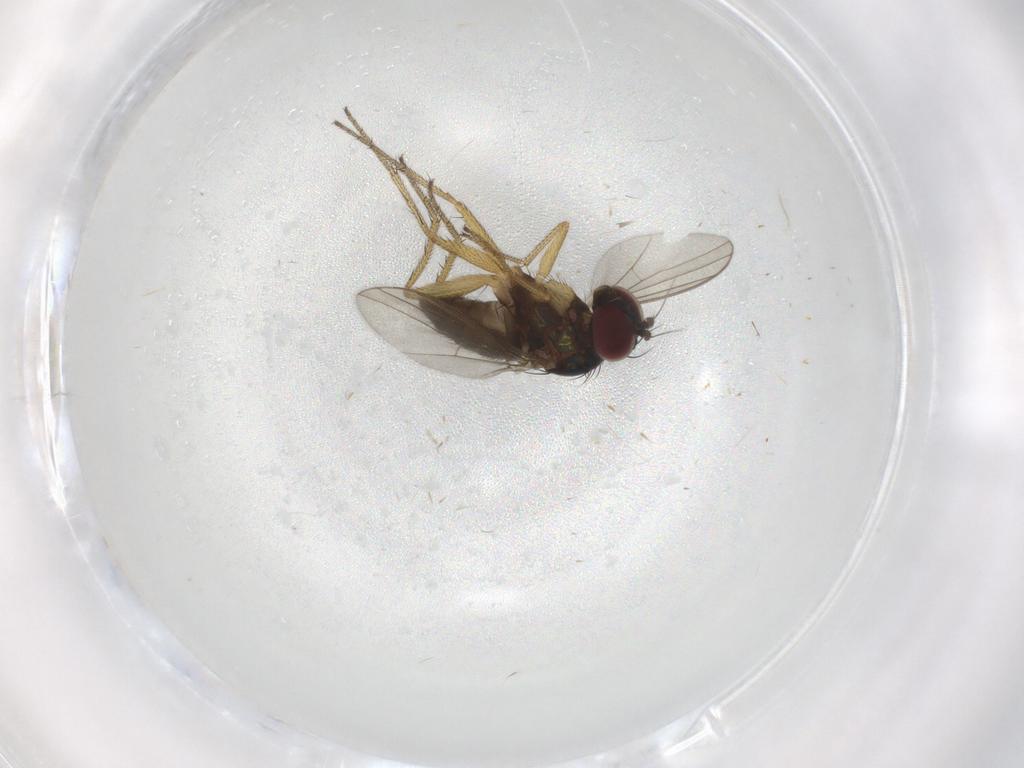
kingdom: Animalia
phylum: Arthropoda
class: Insecta
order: Diptera
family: Dolichopodidae
